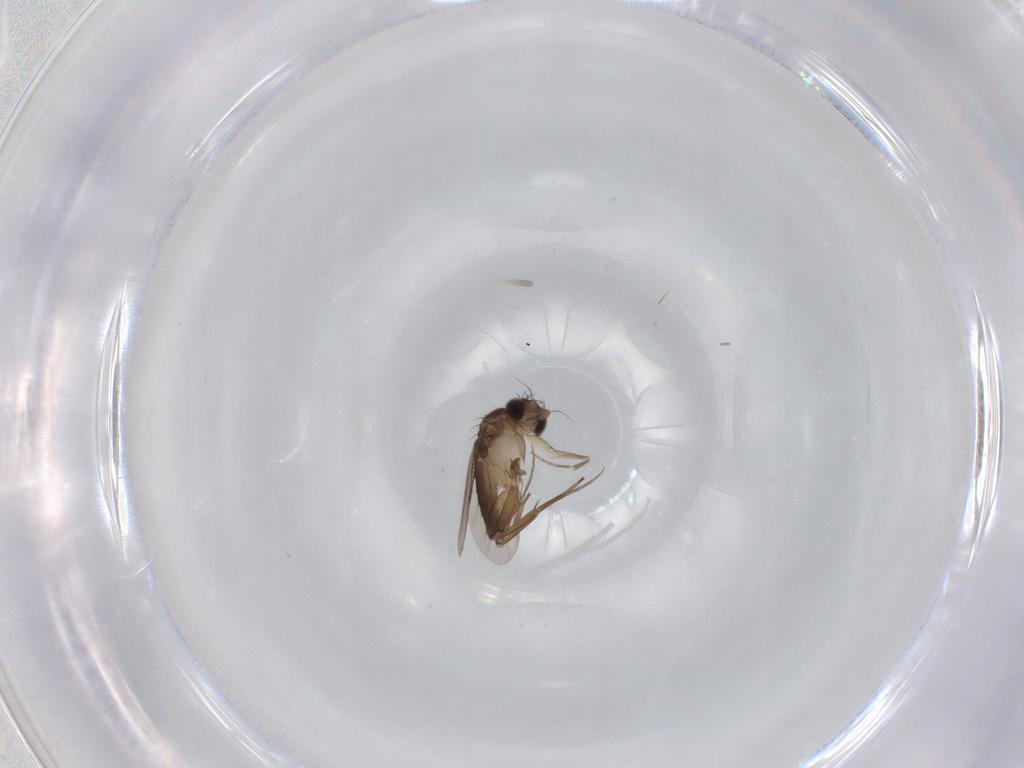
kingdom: Animalia
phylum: Arthropoda
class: Insecta
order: Diptera
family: Phoridae
